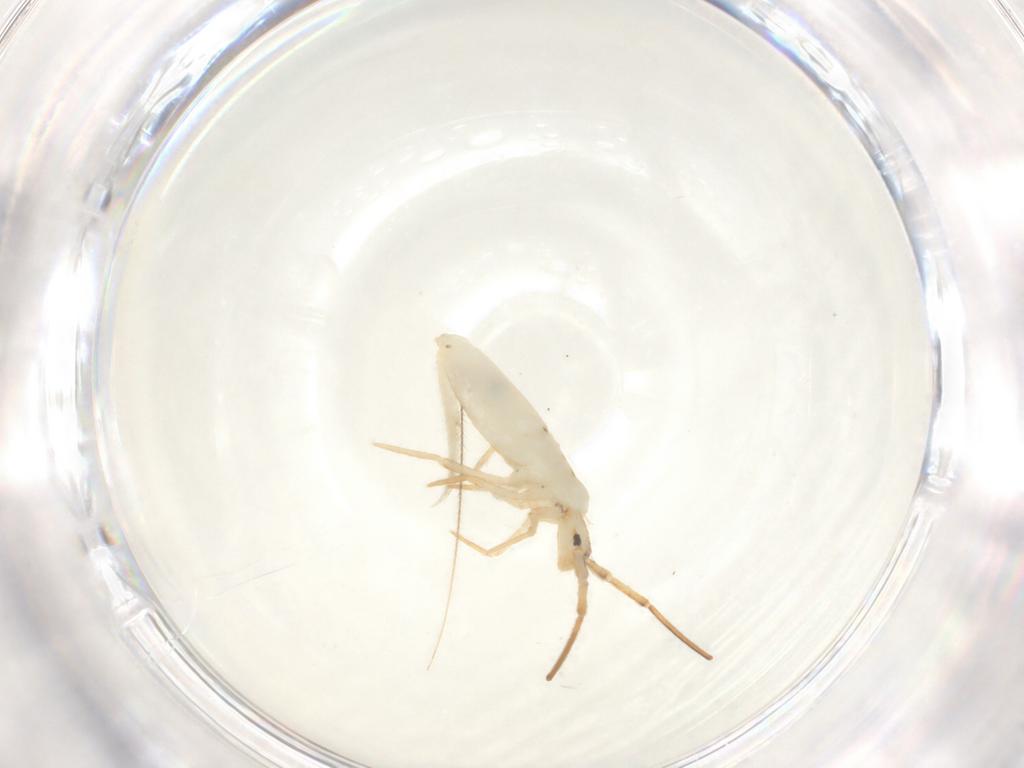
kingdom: Animalia
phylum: Arthropoda
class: Collembola
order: Entomobryomorpha
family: Entomobryidae
